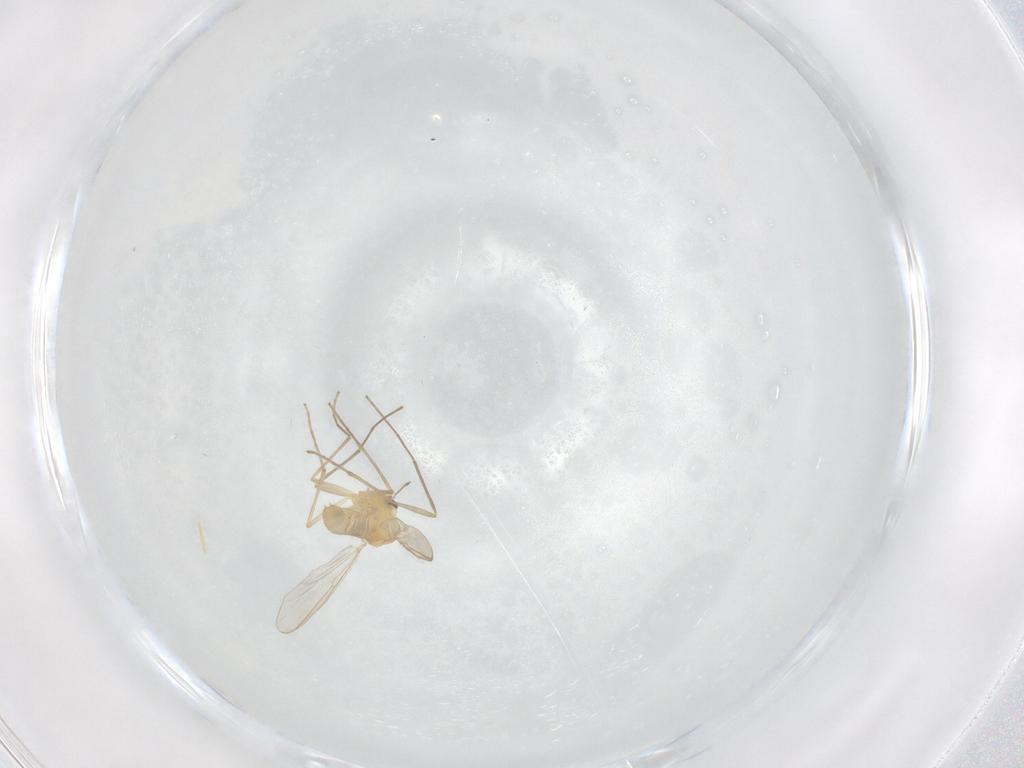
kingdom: Animalia
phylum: Arthropoda
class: Insecta
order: Diptera
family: Chironomidae
